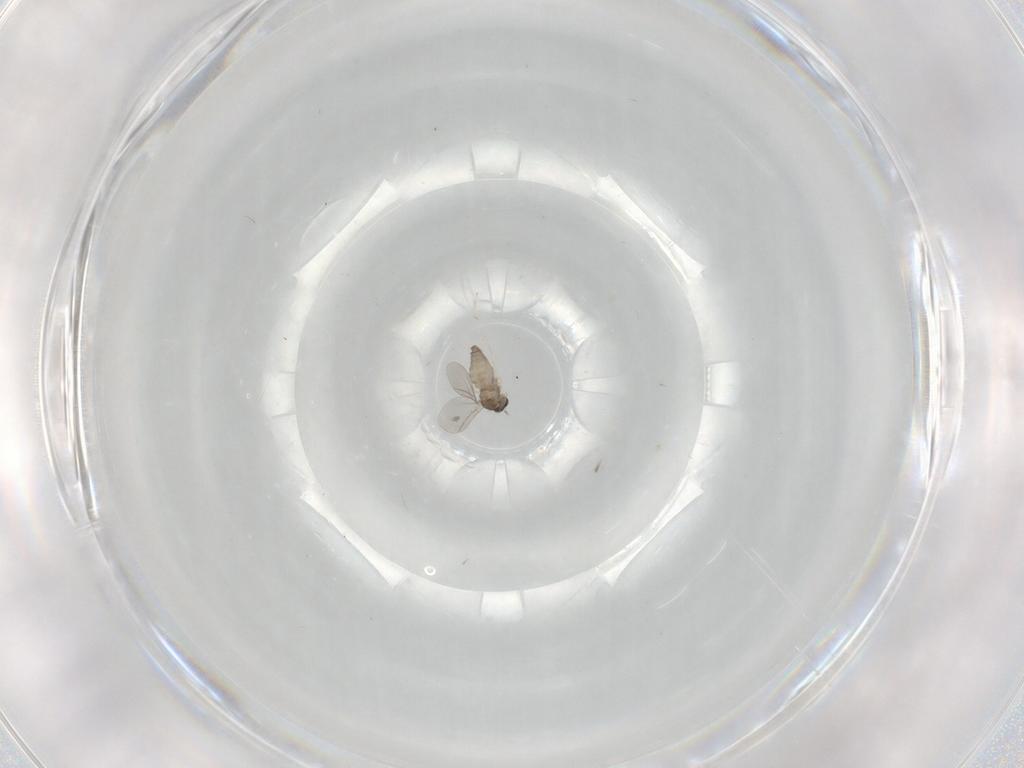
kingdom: Animalia
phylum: Arthropoda
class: Insecta
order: Diptera
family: Cecidomyiidae
